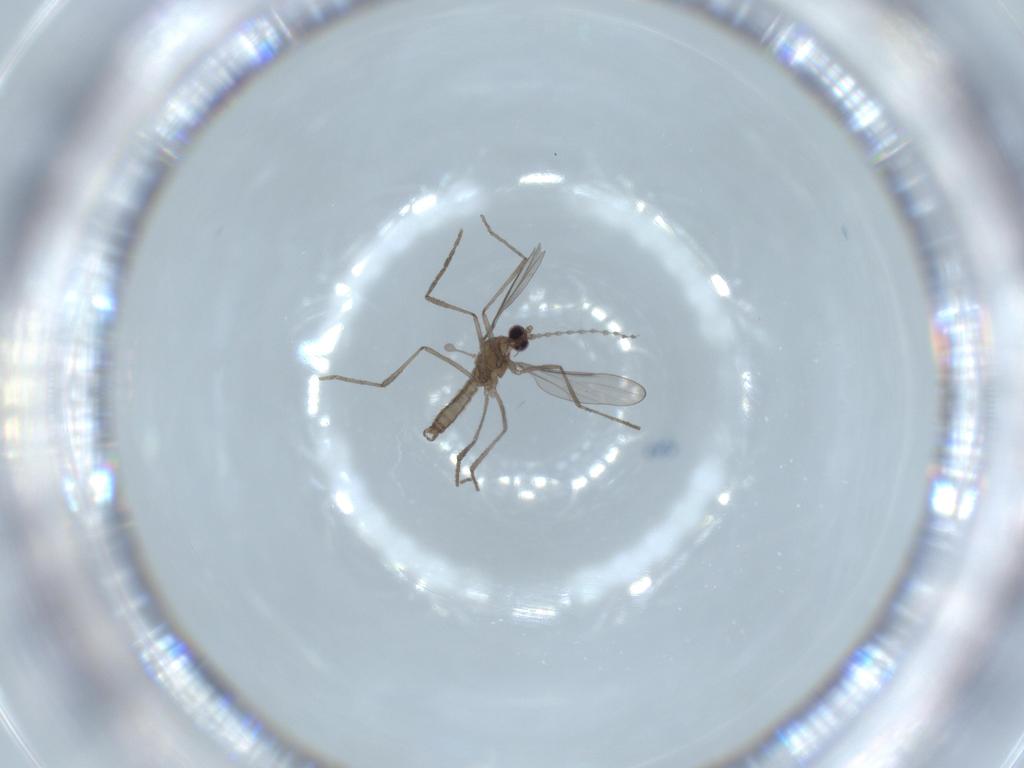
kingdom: Animalia
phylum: Arthropoda
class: Insecta
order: Diptera
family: Cecidomyiidae
